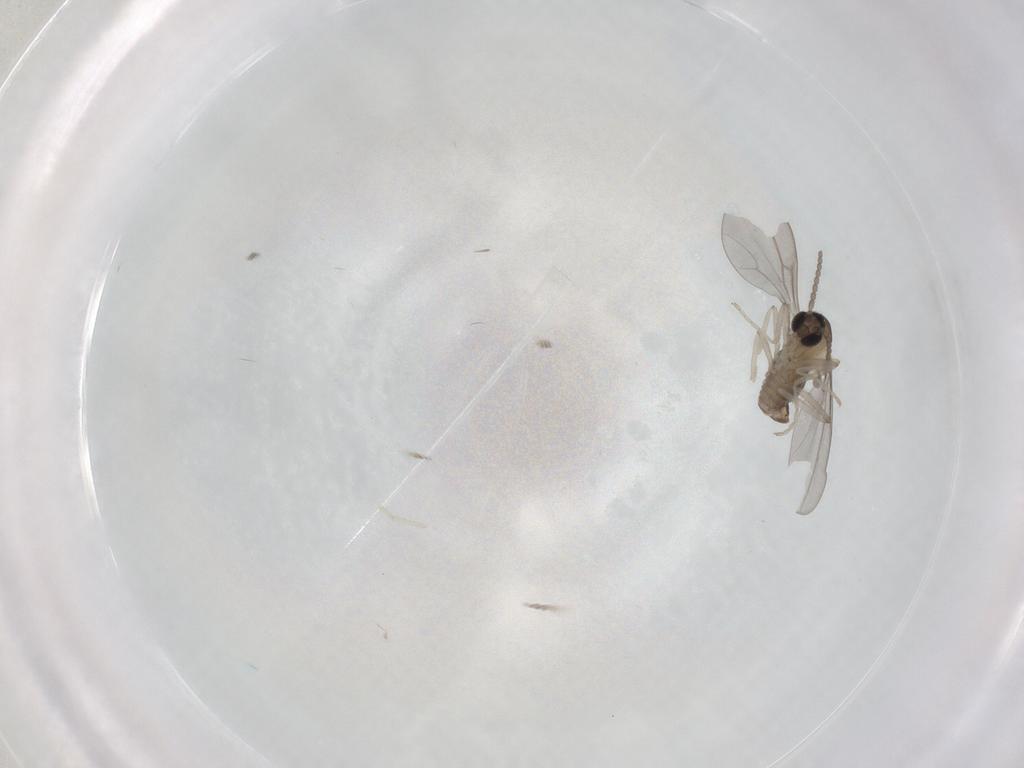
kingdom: Animalia
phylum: Arthropoda
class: Insecta
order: Diptera
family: Cecidomyiidae
